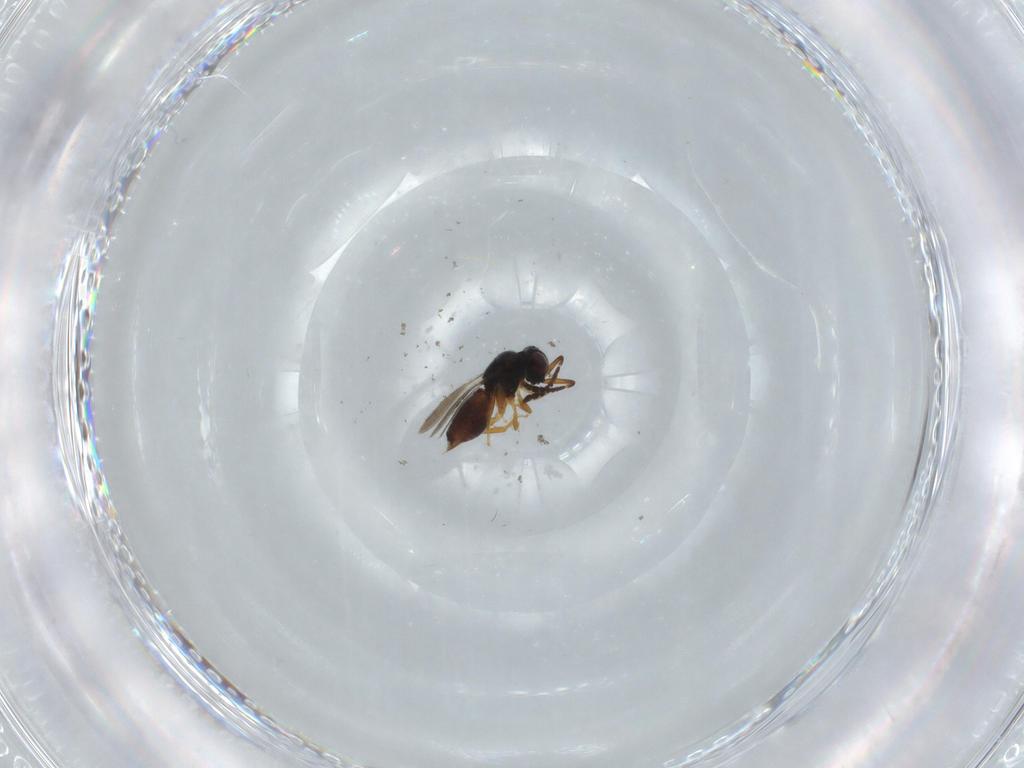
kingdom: Animalia
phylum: Arthropoda
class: Insecta
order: Hymenoptera
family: Ceraphronidae
